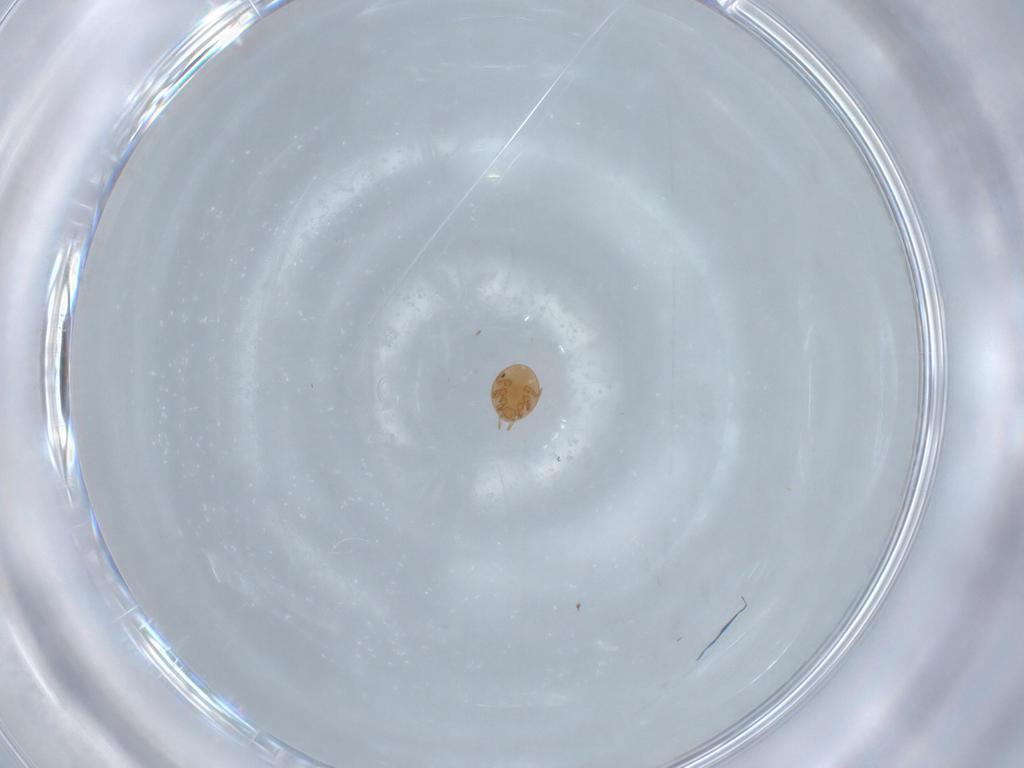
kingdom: Animalia
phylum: Arthropoda
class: Arachnida
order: Mesostigmata
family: Trematuridae
